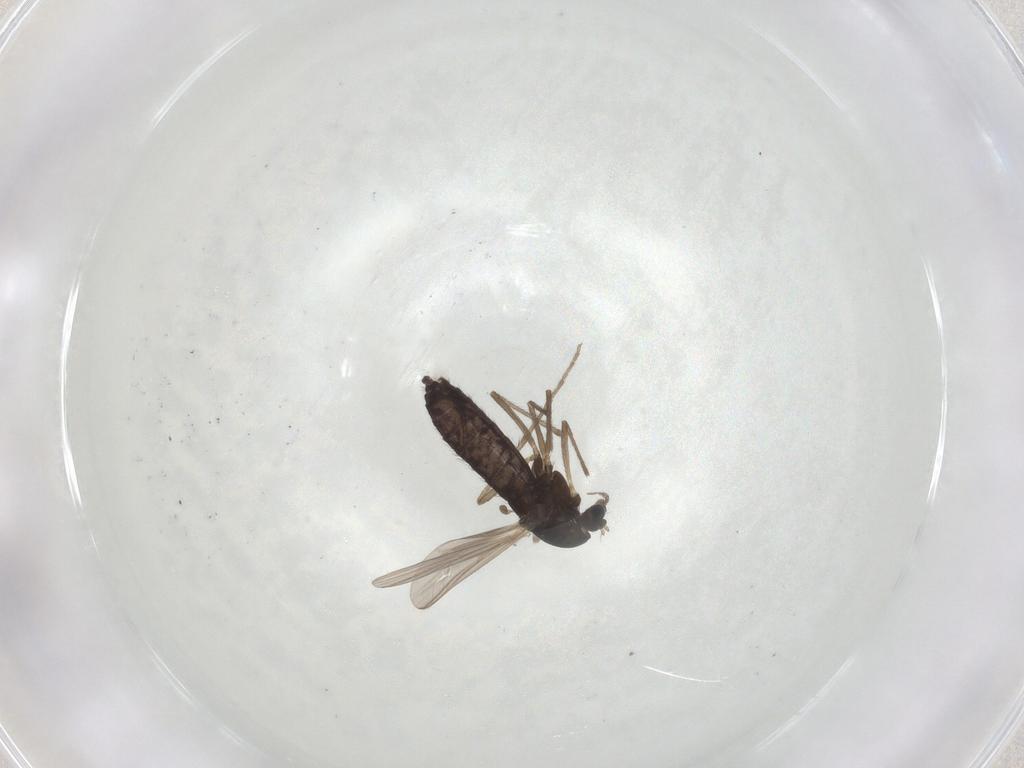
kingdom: Animalia
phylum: Arthropoda
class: Insecta
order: Diptera
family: Chironomidae
